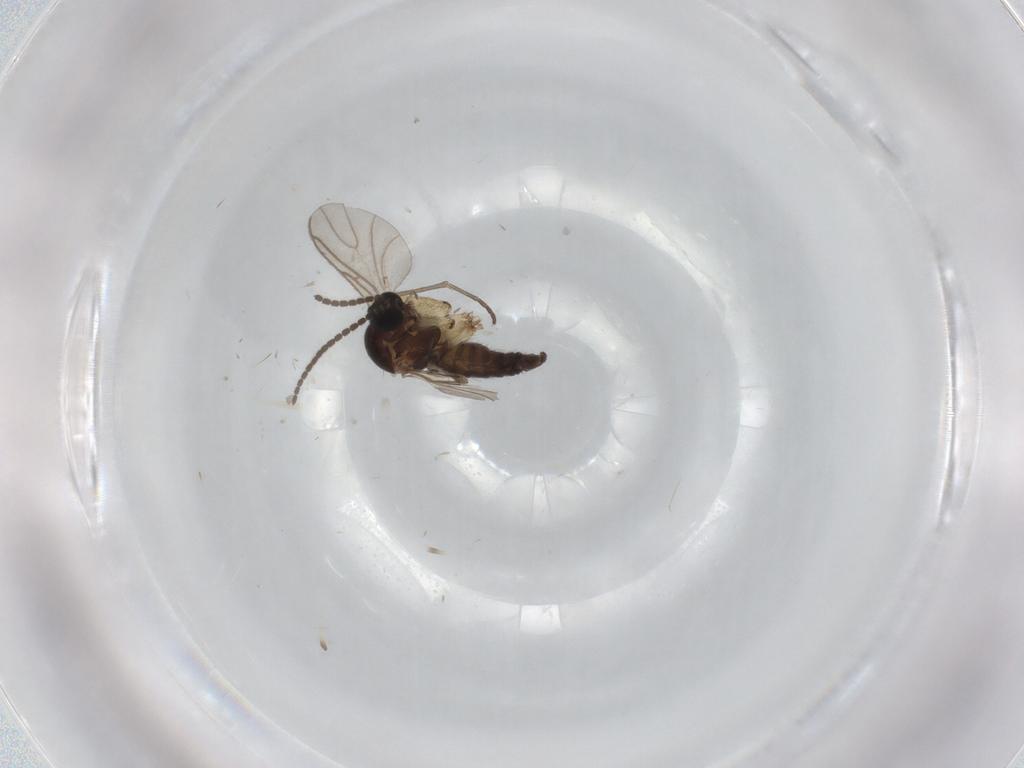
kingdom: Animalia
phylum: Arthropoda
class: Insecta
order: Diptera
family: Sciaridae
